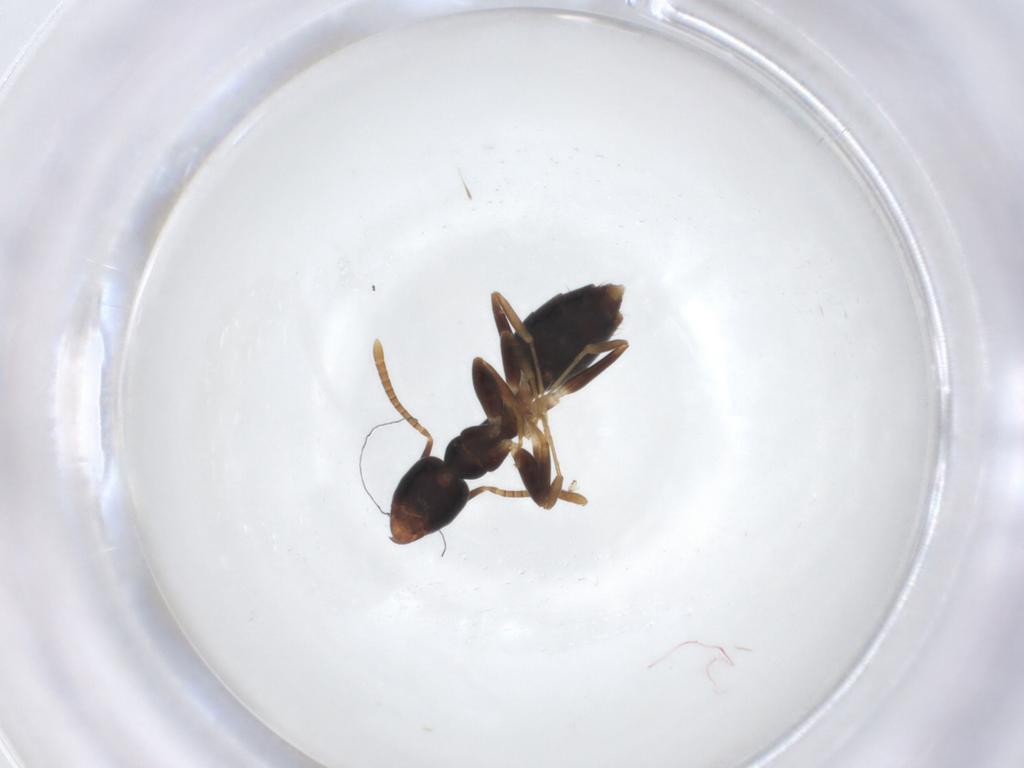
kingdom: Animalia
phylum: Arthropoda
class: Insecta
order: Hymenoptera
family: Formicidae
